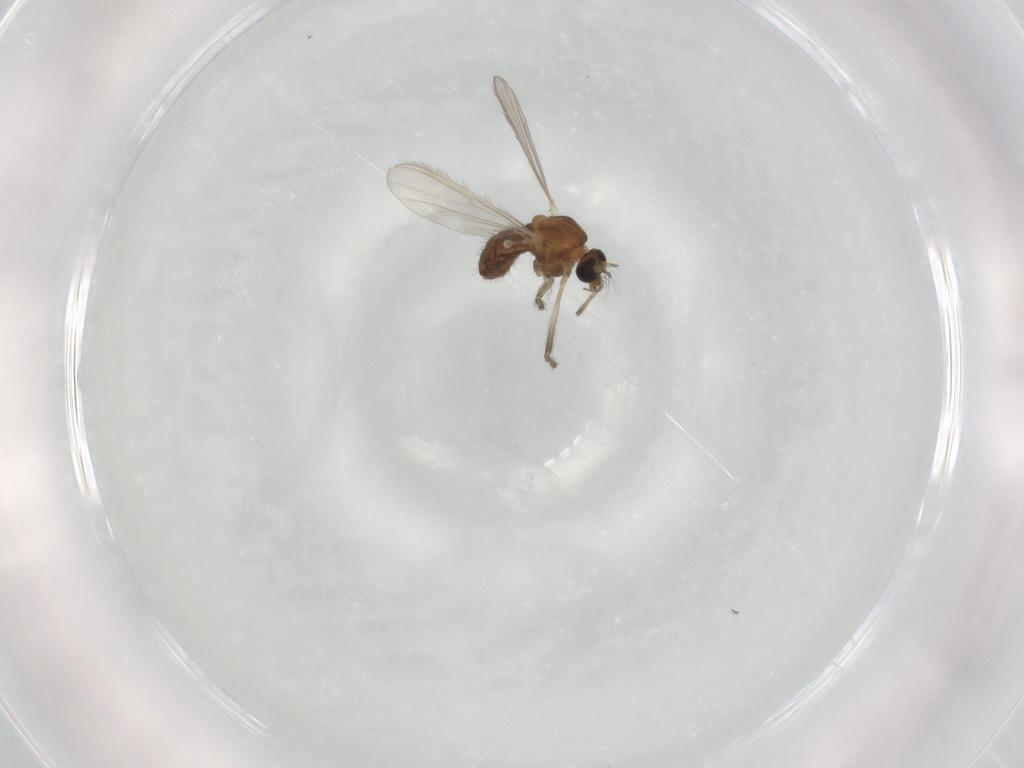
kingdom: Animalia
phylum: Arthropoda
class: Insecta
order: Diptera
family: Chironomidae
